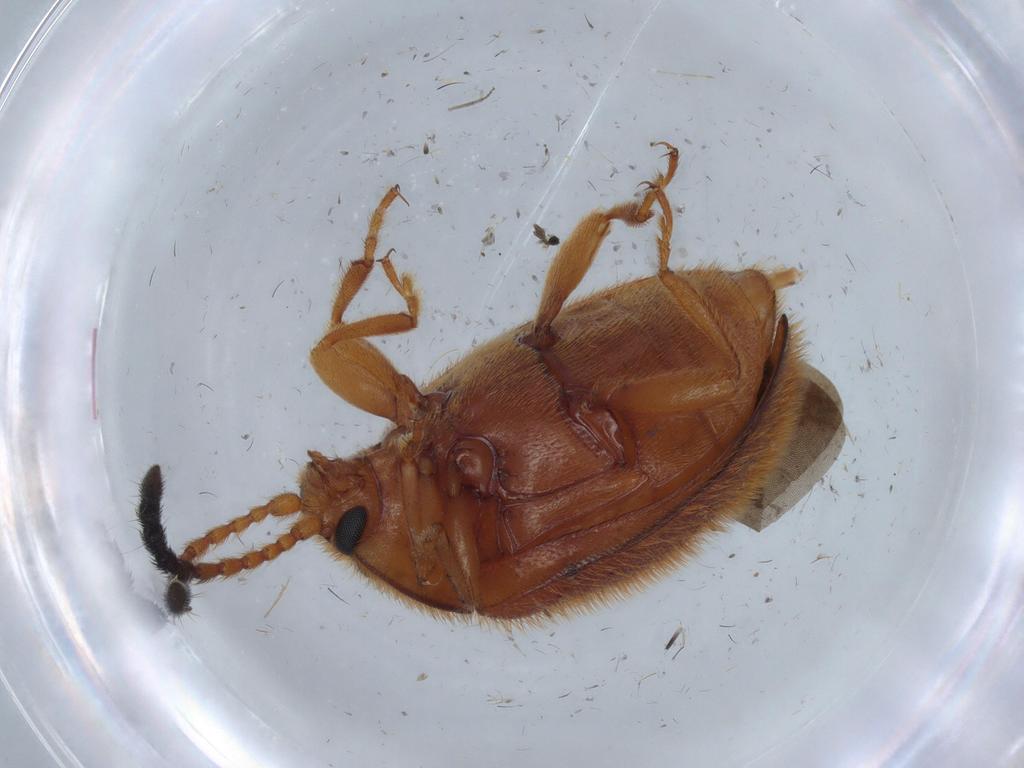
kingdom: Animalia
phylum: Arthropoda
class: Insecta
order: Coleoptera
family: Endomychidae
